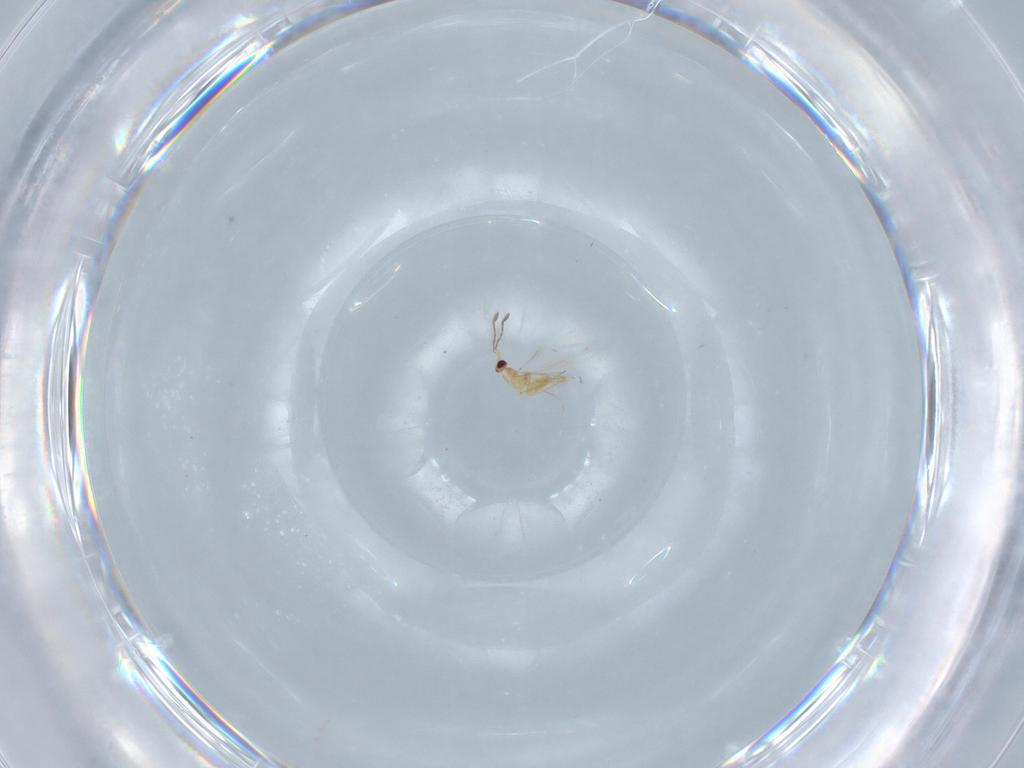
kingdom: Animalia
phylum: Arthropoda
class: Insecta
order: Hymenoptera
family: Mymaridae
